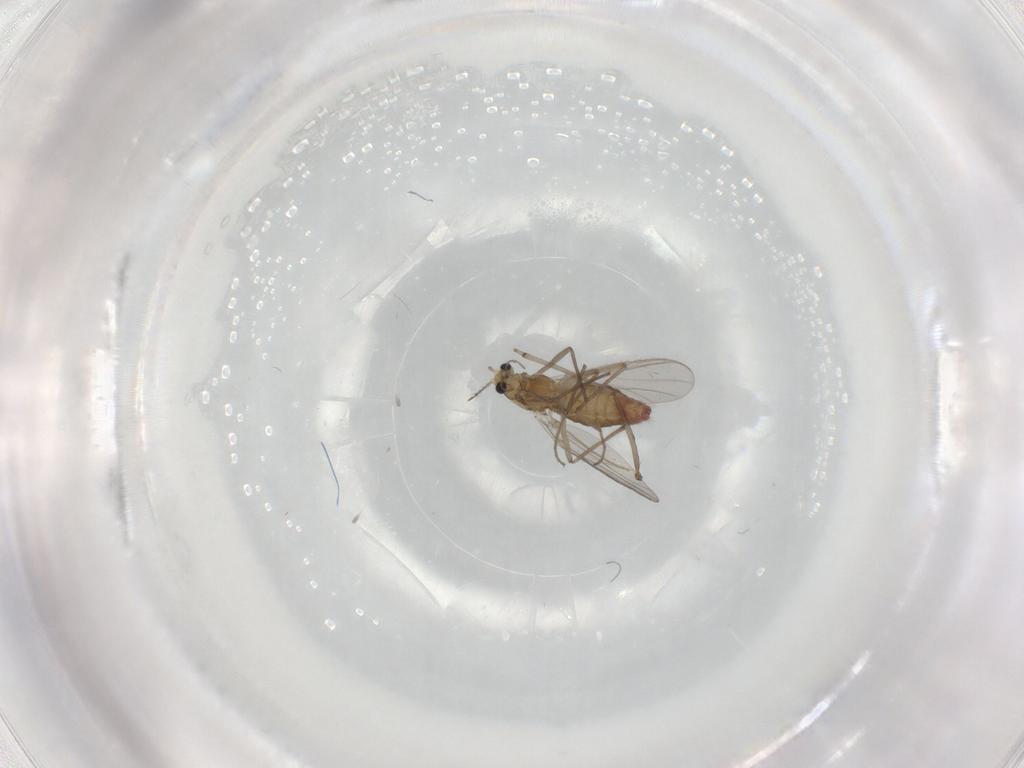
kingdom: Animalia
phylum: Arthropoda
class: Insecta
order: Diptera
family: Chironomidae
